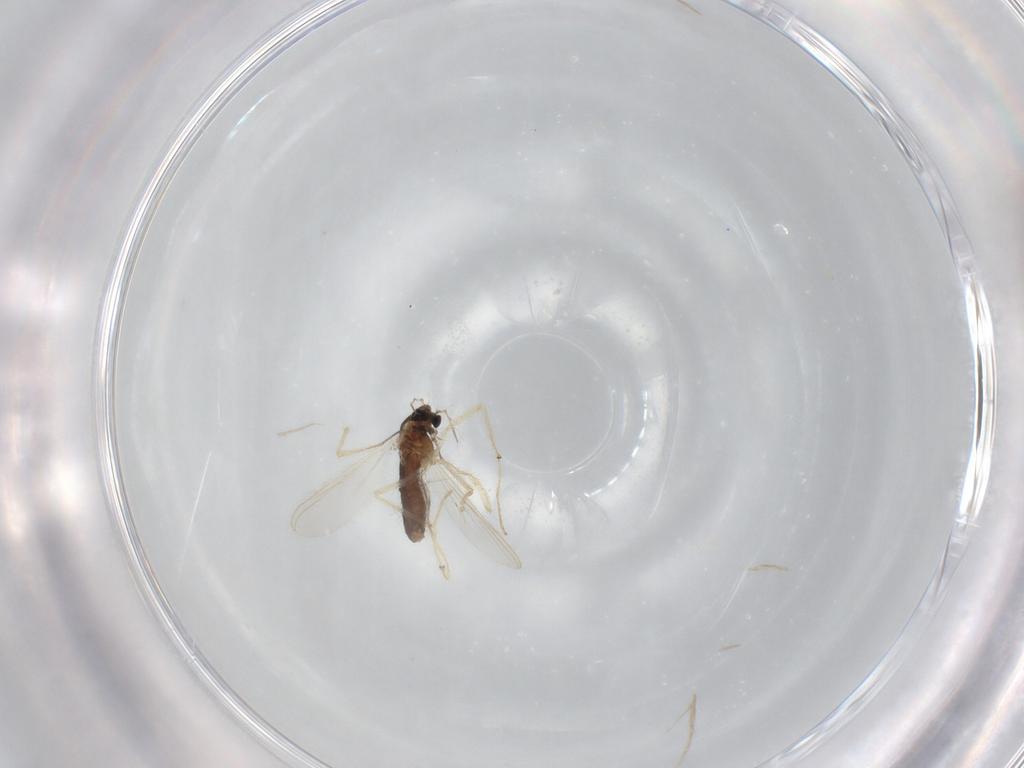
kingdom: Animalia
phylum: Arthropoda
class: Insecta
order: Diptera
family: Chironomidae
